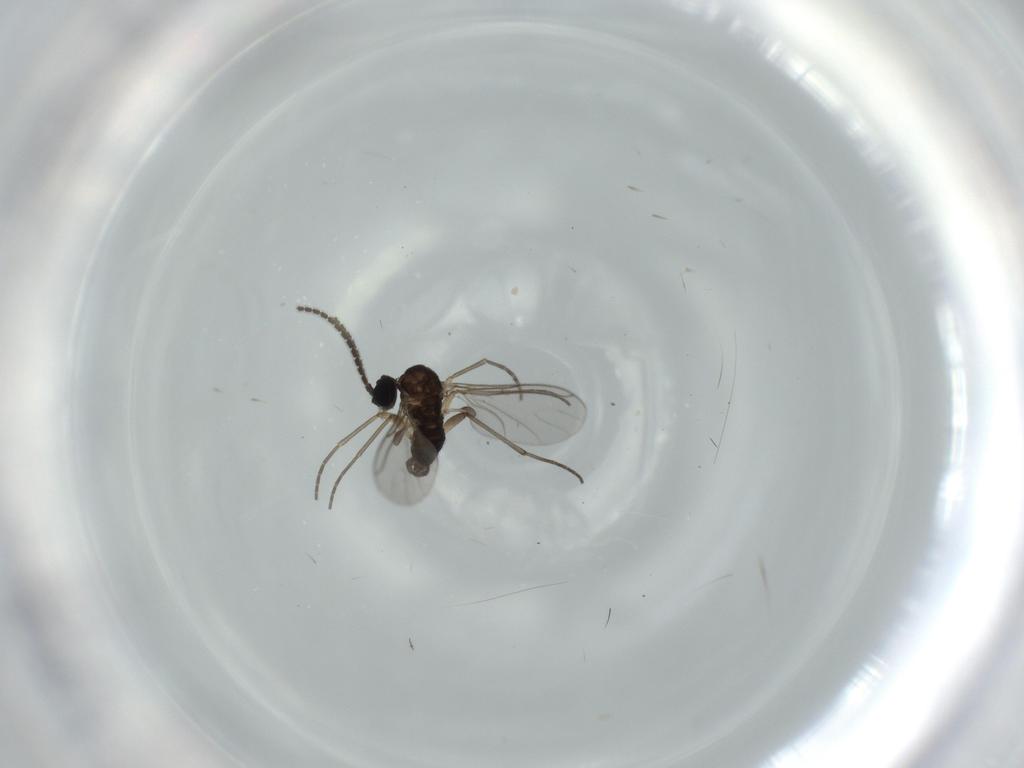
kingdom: Animalia
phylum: Arthropoda
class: Insecta
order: Diptera
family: Sciaridae
